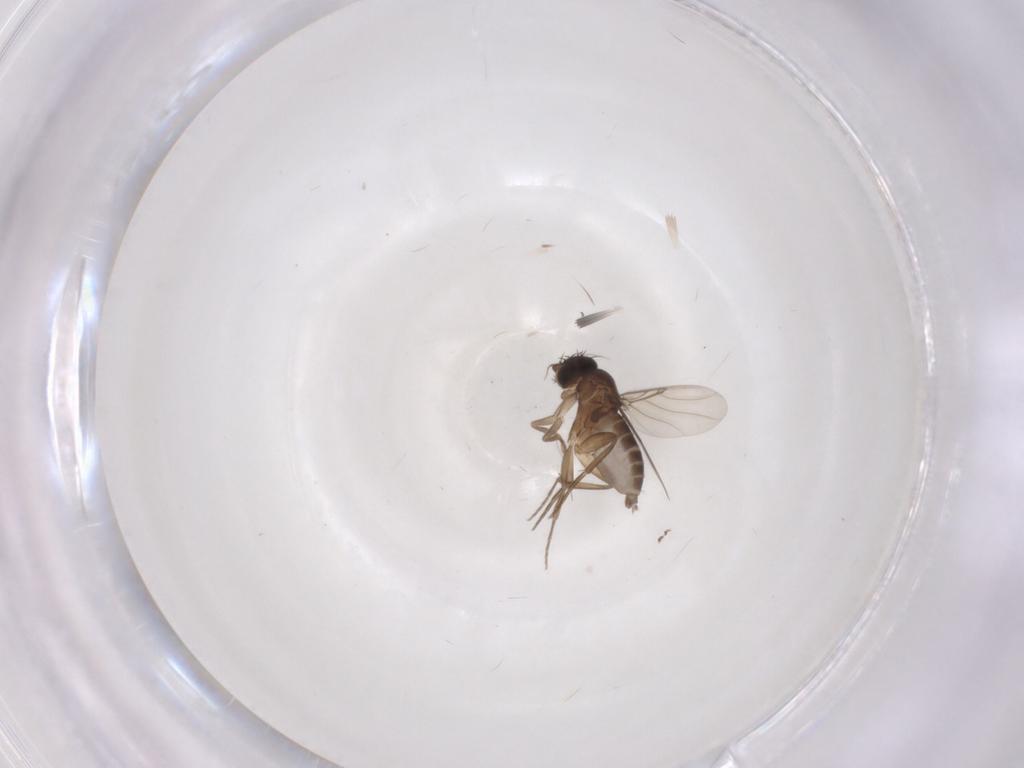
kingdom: Animalia
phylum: Arthropoda
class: Insecta
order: Diptera
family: Phoridae
